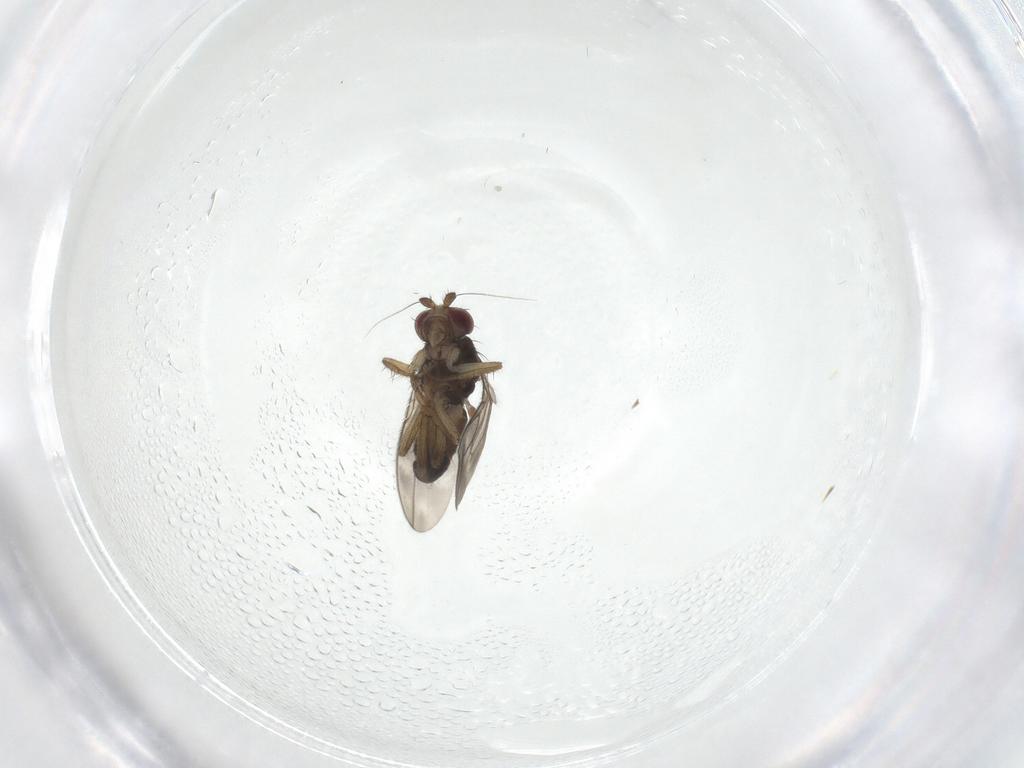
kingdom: Animalia
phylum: Arthropoda
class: Insecta
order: Diptera
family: Sphaeroceridae
